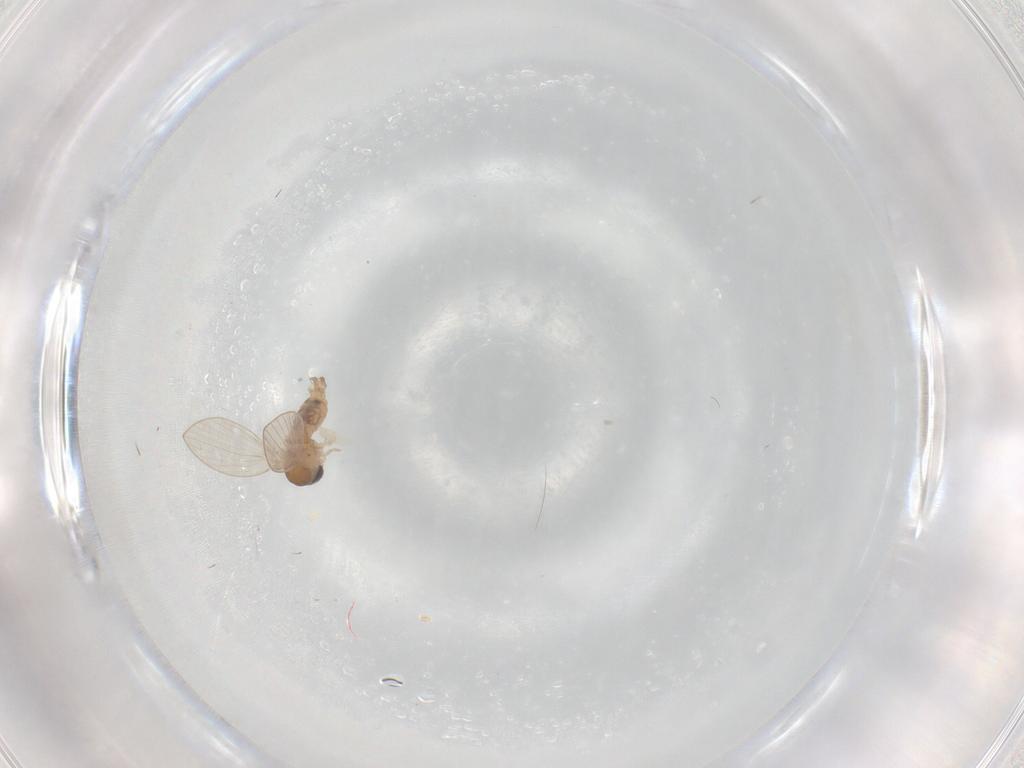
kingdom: Animalia
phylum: Arthropoda
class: Insecta
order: Diptera
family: Psychodidae
